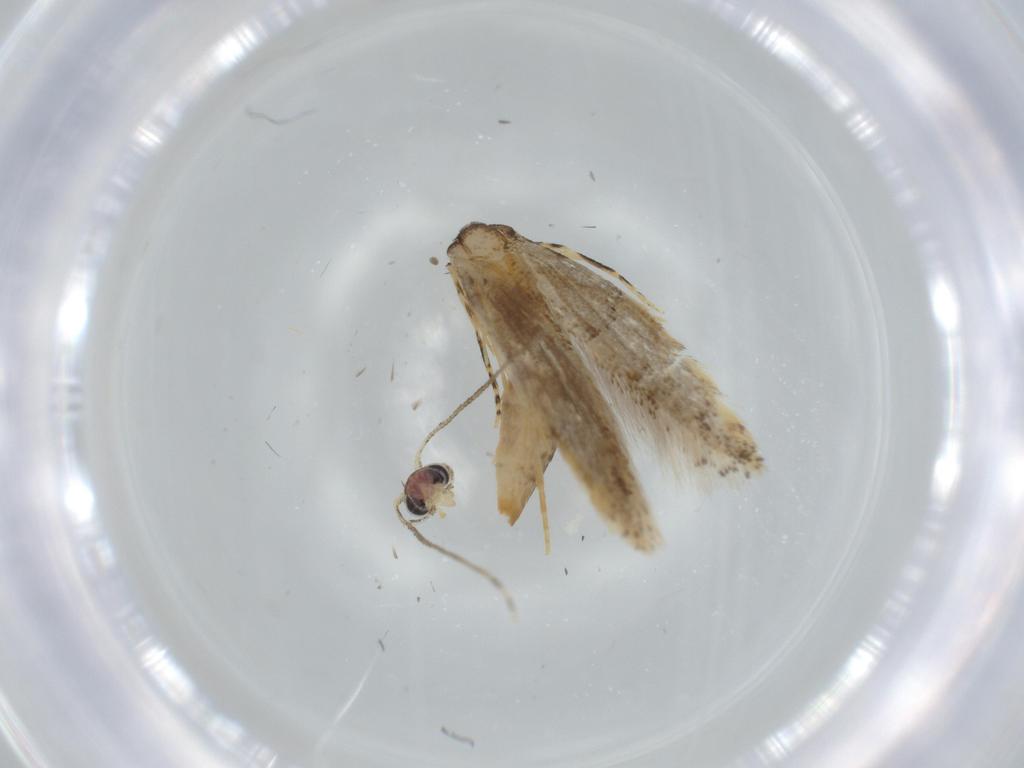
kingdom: Animalia
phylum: Arthropoda
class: Insecta
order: Lepidoptera
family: Tineidae
